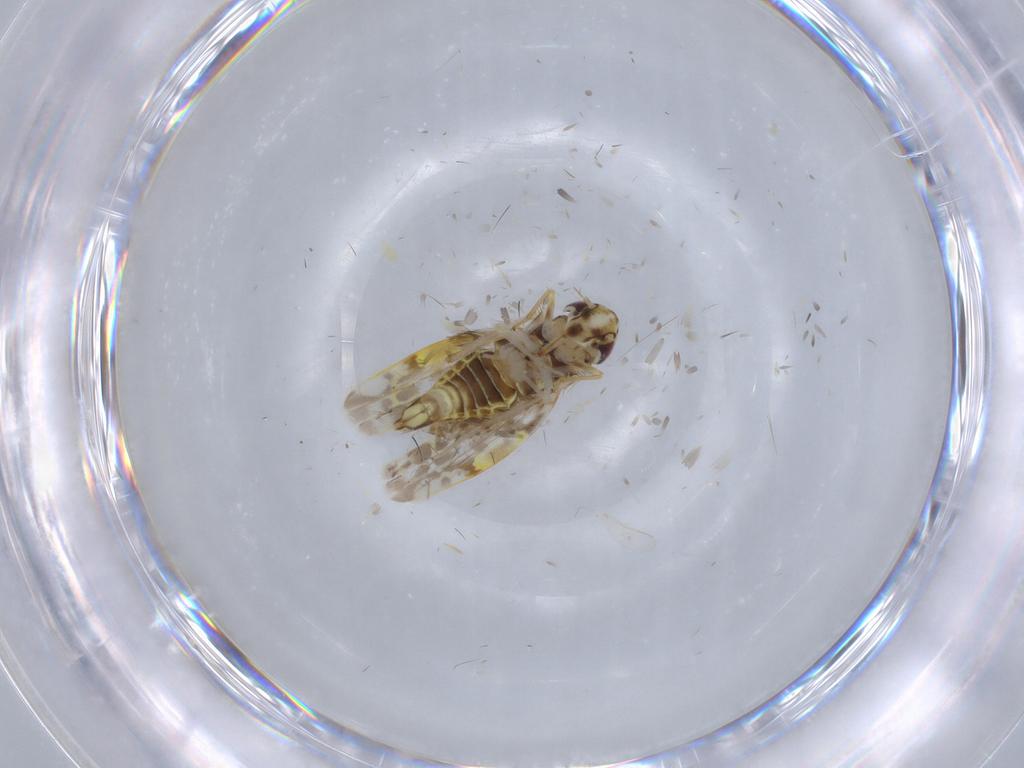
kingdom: Animalia
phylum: Arthropoda
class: Insecta
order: Hemiptera
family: Cicadellidae
